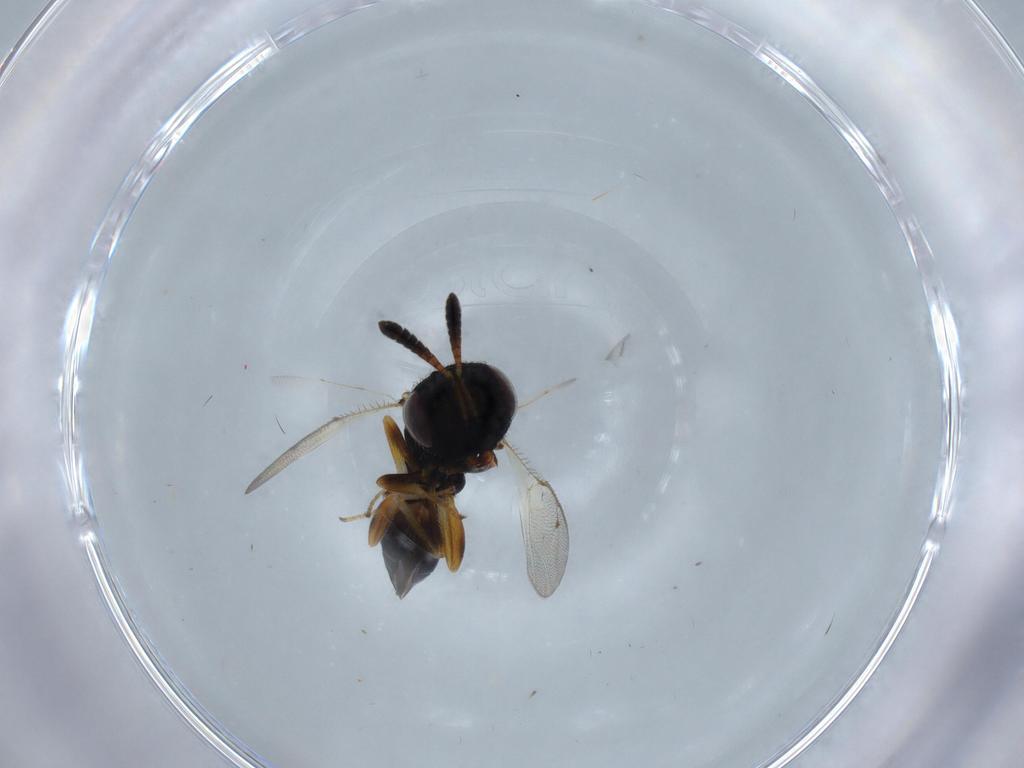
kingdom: Animalia
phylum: Arthropoda
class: Insecta
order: Hymenoptera
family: Agaonidae
